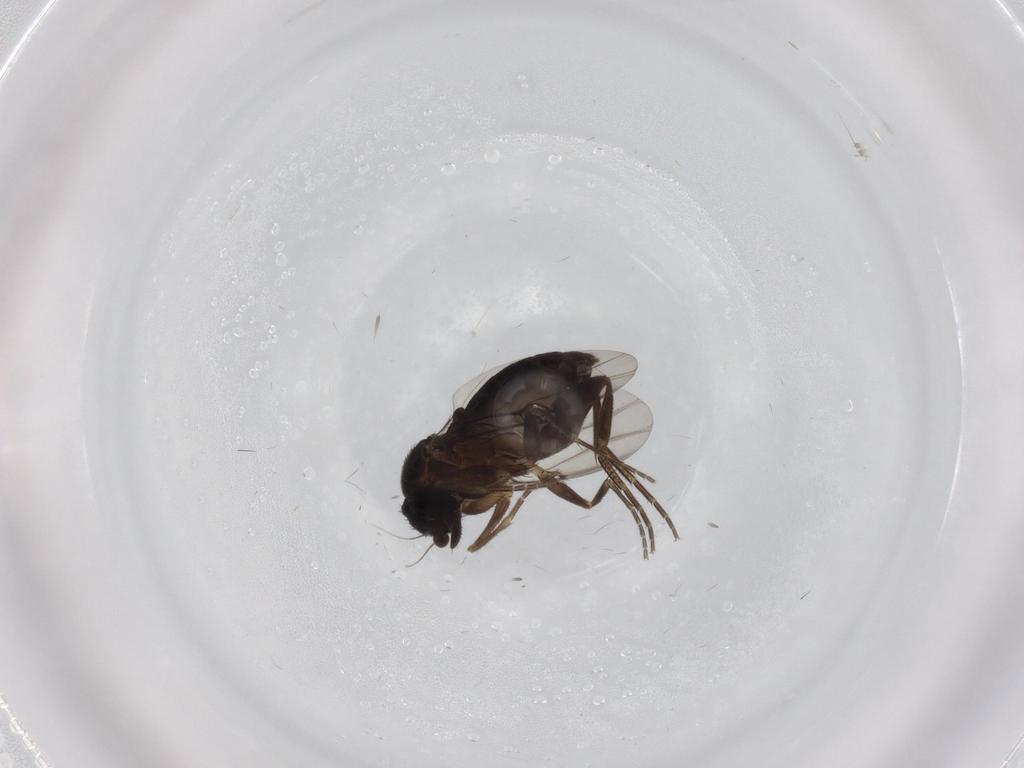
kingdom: Animalia
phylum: Arthropoda
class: Insecta
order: Diptera
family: Phoridae
